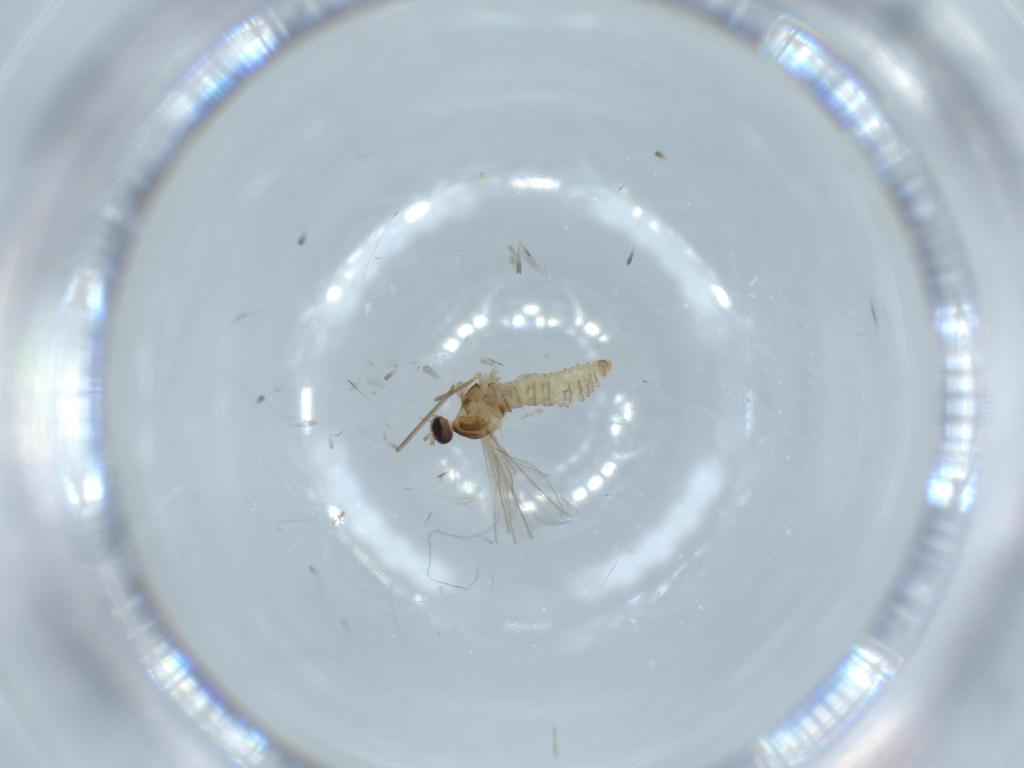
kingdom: Animalia
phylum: Arthropoda
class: Insecta
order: Diptera
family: Cecidomyiidae
